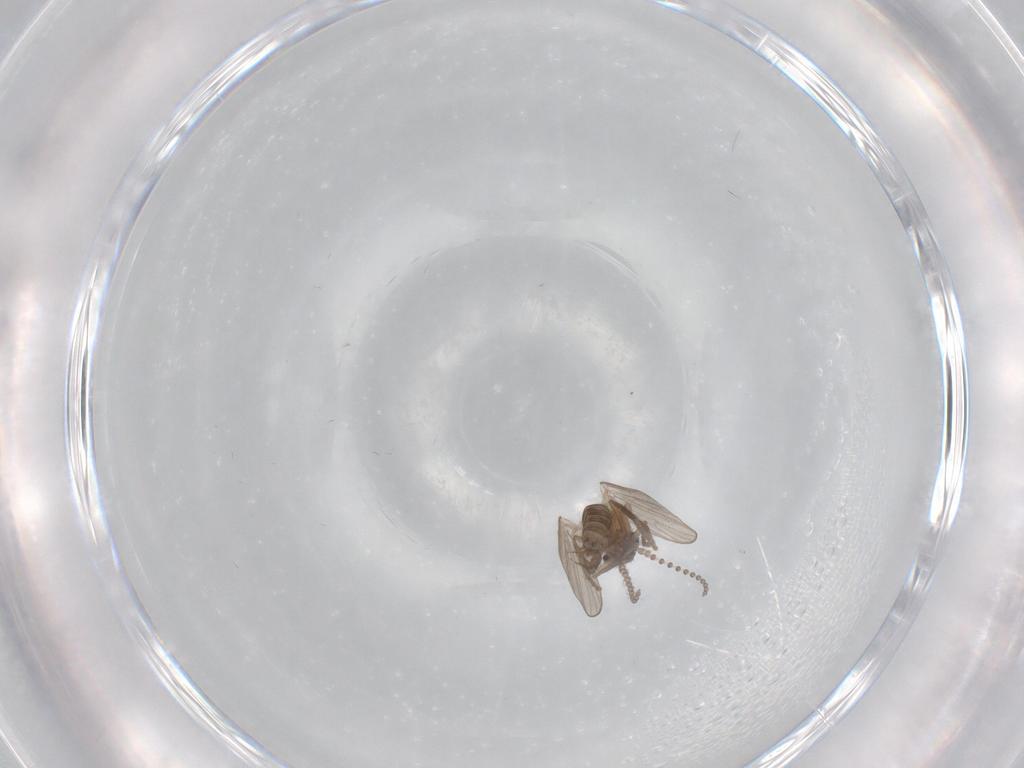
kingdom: Animalia
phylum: Arthropoda
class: Insecta
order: Diptera
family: Psychodidae
